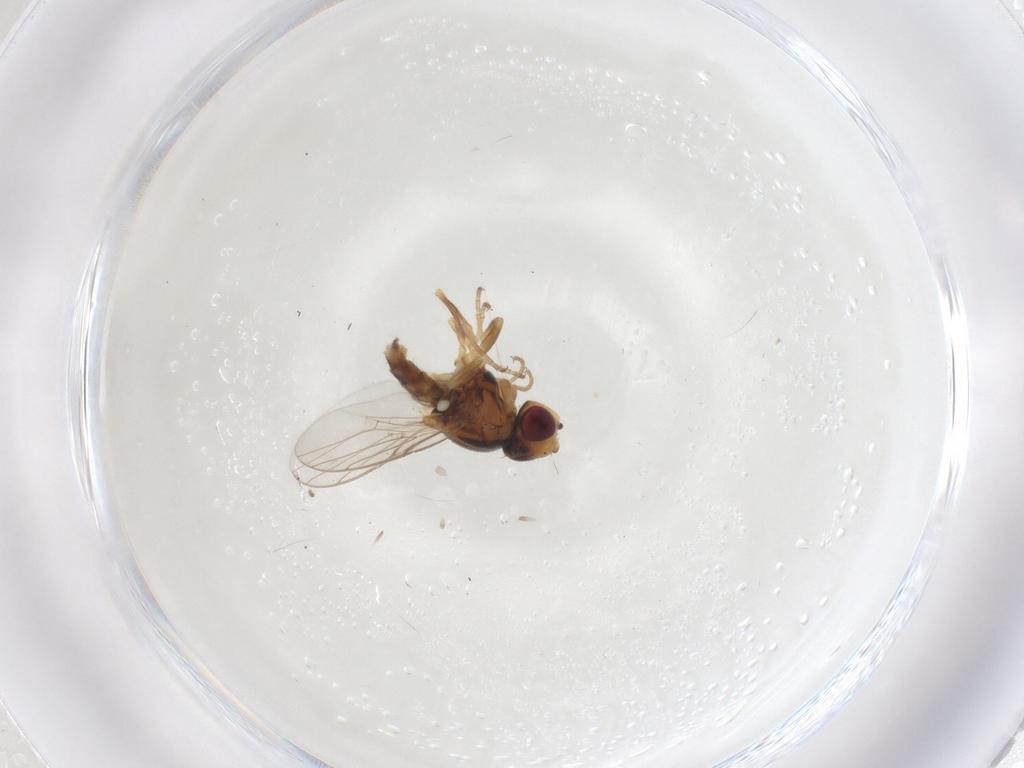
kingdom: Animalia
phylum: Arthropoda
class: Insecta
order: Diptera
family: Chloropidae
